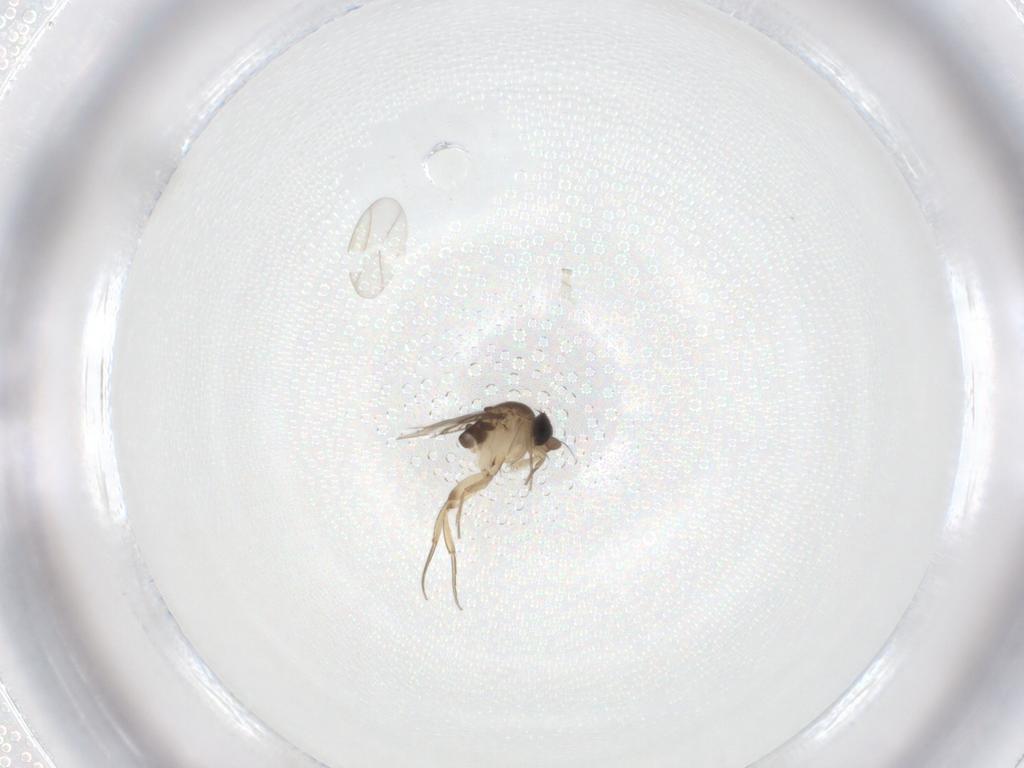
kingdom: Animalia
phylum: Arthropoda
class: Insecta
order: Diptera
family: Phoridae
